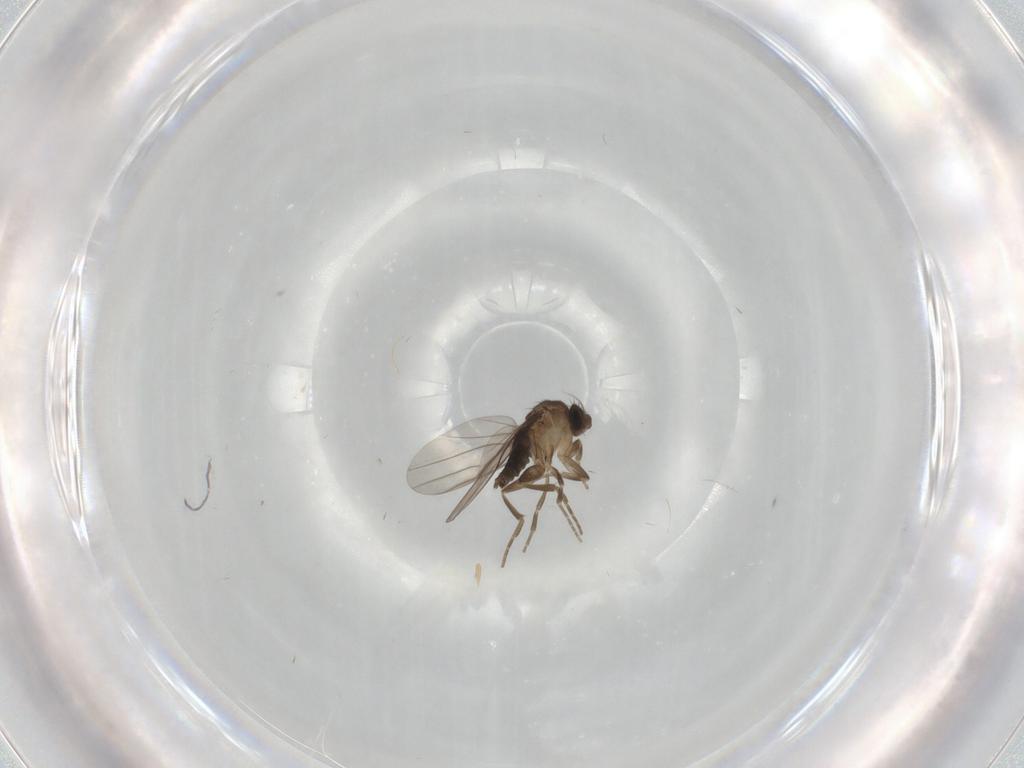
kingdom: Animalia
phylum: Arthropoda
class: Insecta
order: Diptera
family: Phoridae
